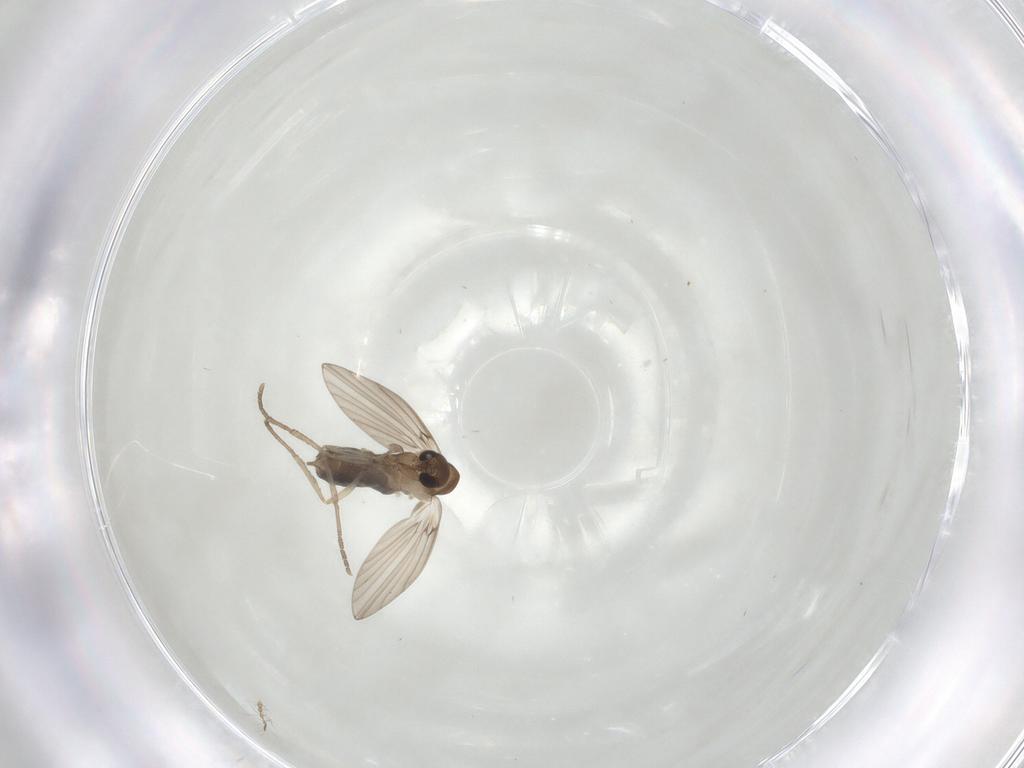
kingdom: Animalia
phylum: Arthropoda
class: Insecta
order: Diptera
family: Chironomidae
